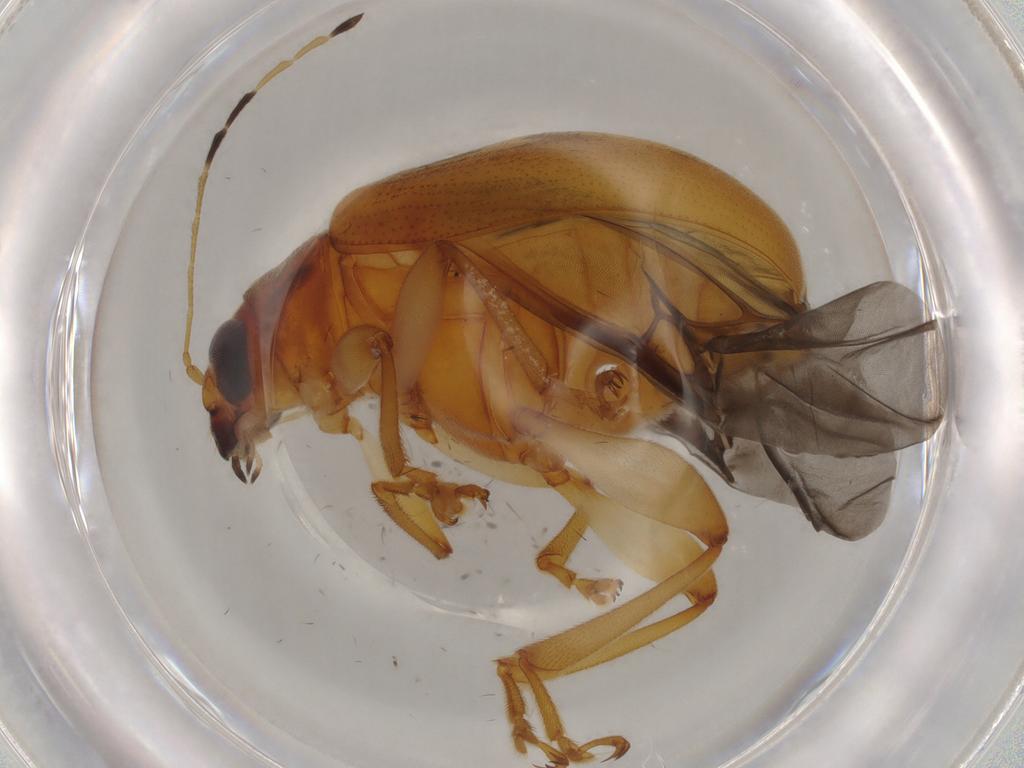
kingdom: Animalia
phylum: Arthropoda
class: Insecta
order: Coleoptera
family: Chrysomelidae
